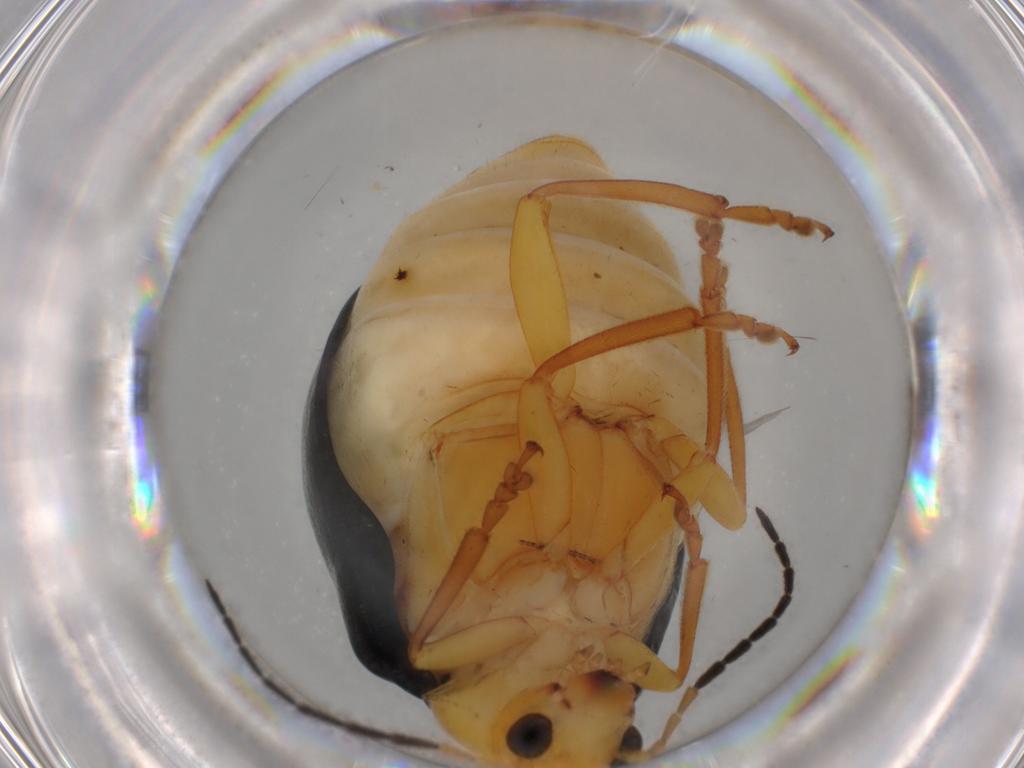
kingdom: Animalia
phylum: Arthropoda
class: Insecta
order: Coleoptera
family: Chrysomelidae
